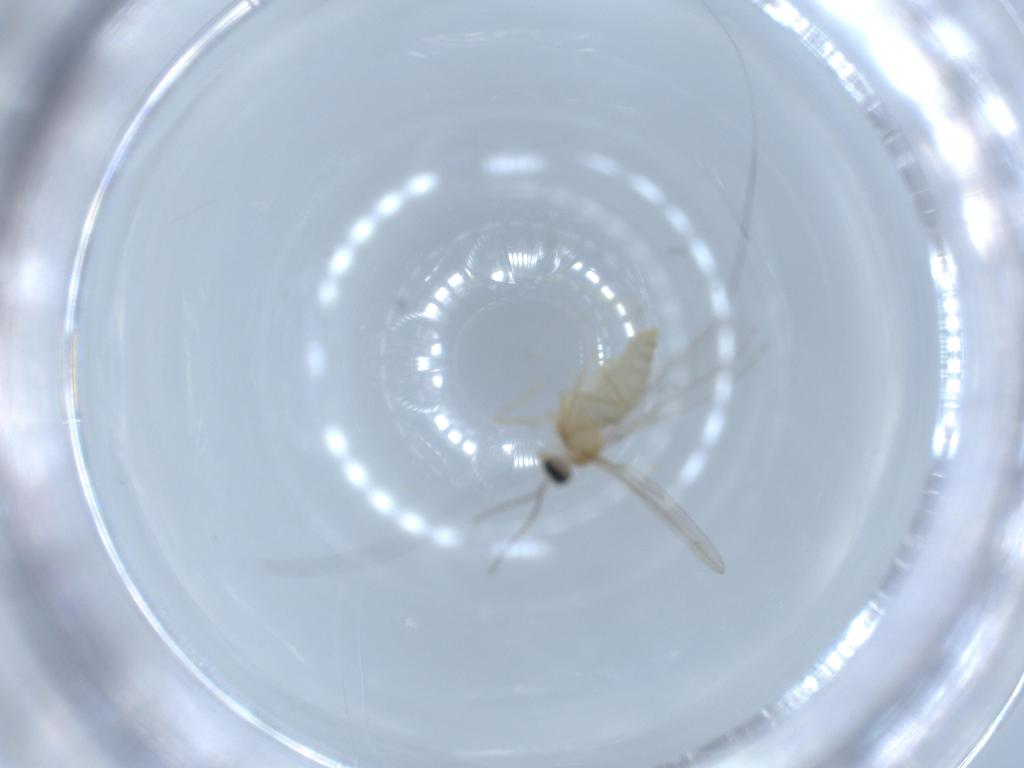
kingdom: Animalia
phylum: Arthropoda
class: Insecta
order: Diptera
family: Cecidomyiidae
